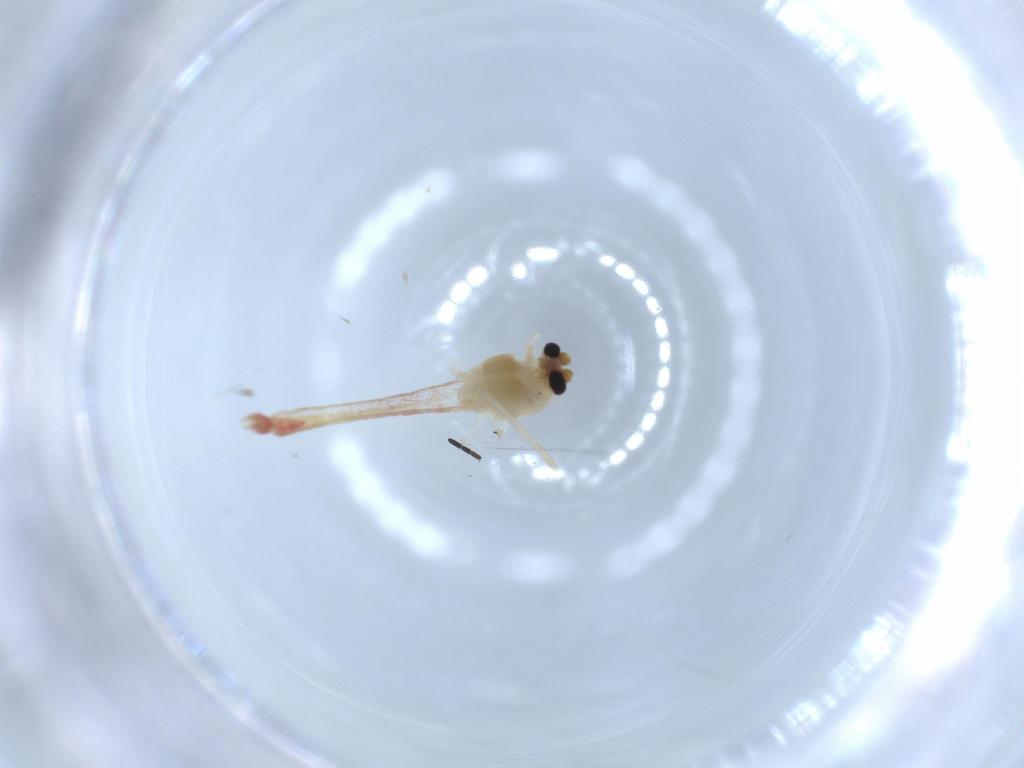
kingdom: Animalia
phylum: Arthropoda
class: Insecta
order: Diptera
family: Chironomidae
